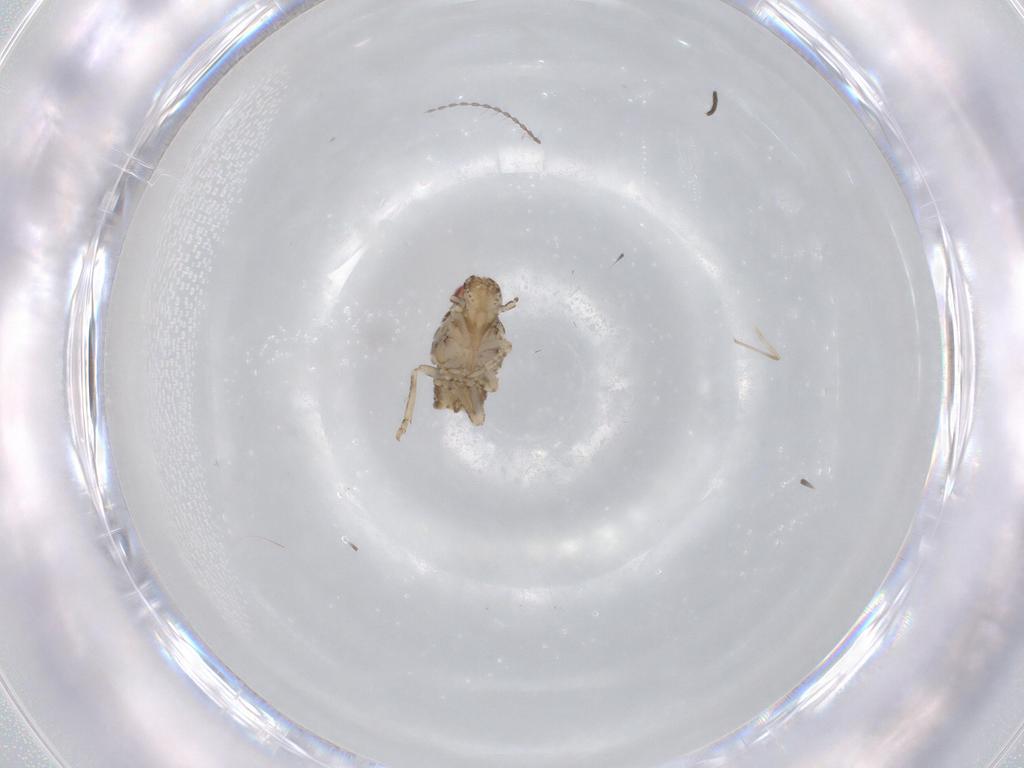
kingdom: Animalia
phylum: Arthropoda
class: Insecta
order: Hemiptera
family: Flatidae
